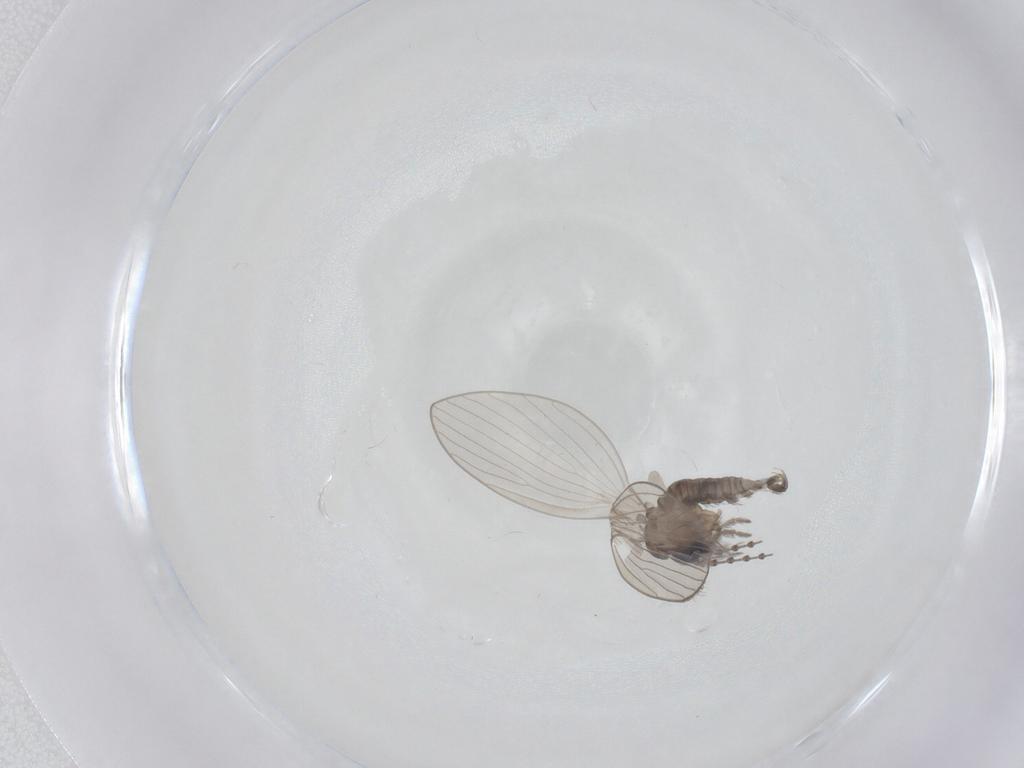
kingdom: Animalia
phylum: Arthropoda
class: Insecta
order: Diptera
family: Psychodidae
